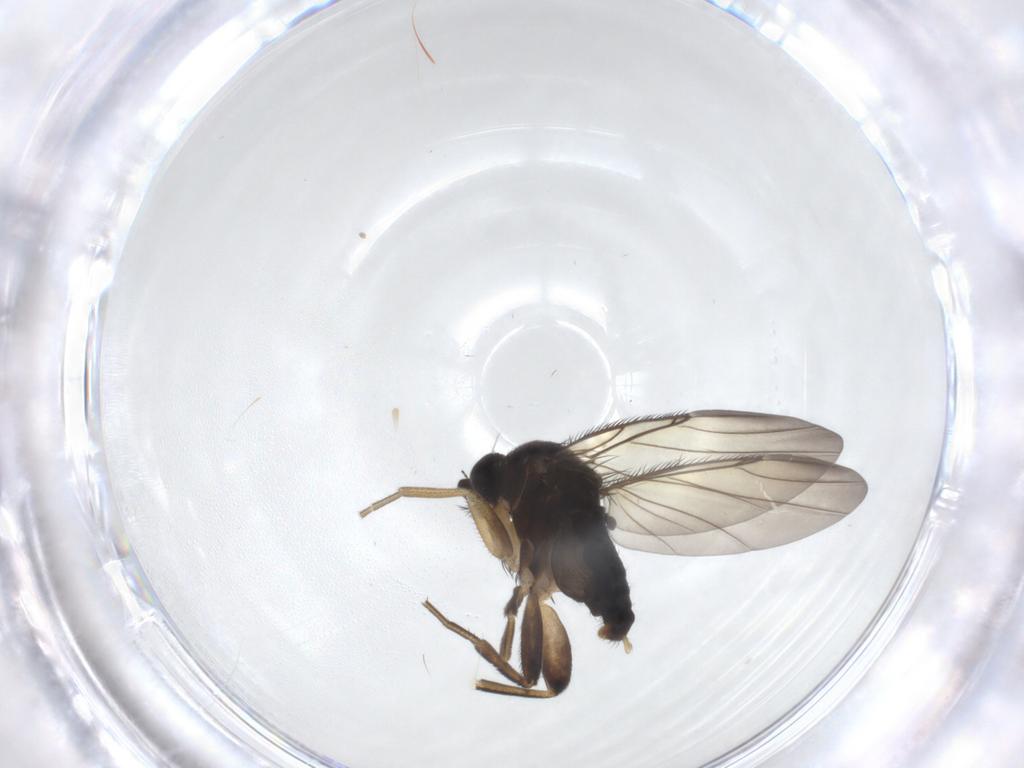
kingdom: Animalia
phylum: Arthropoda
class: Insecta
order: Diptera
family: Phoridae
